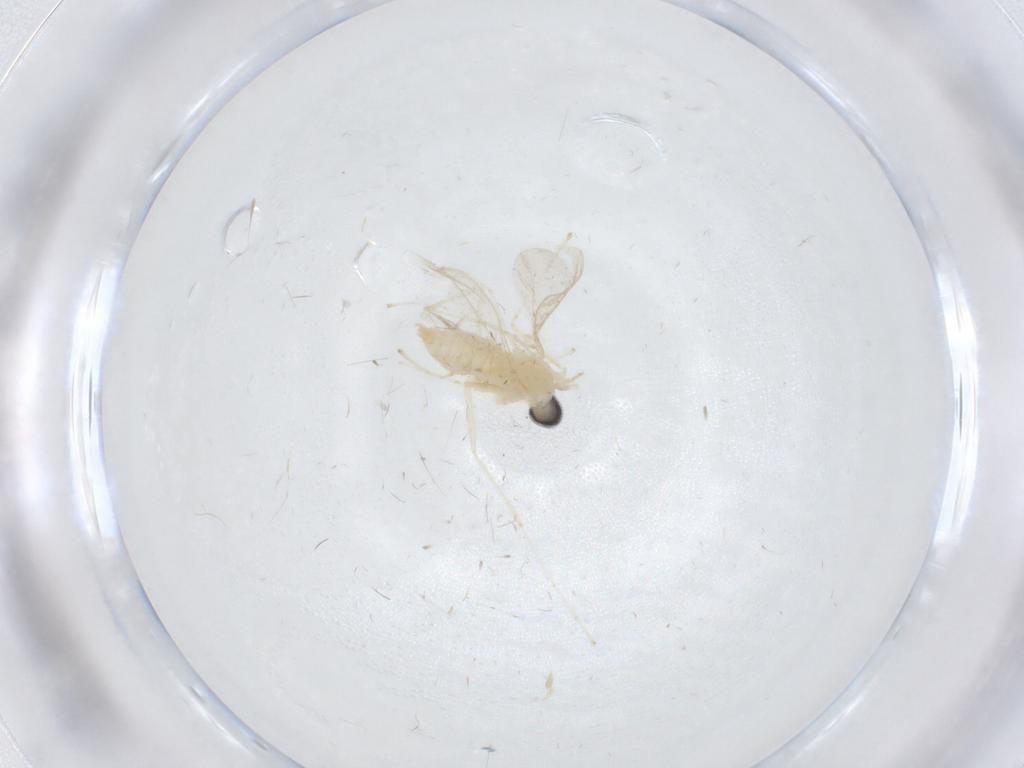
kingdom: Animalia
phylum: Arthropoda
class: Insecta
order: Diptera
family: Cecidomyiidae
